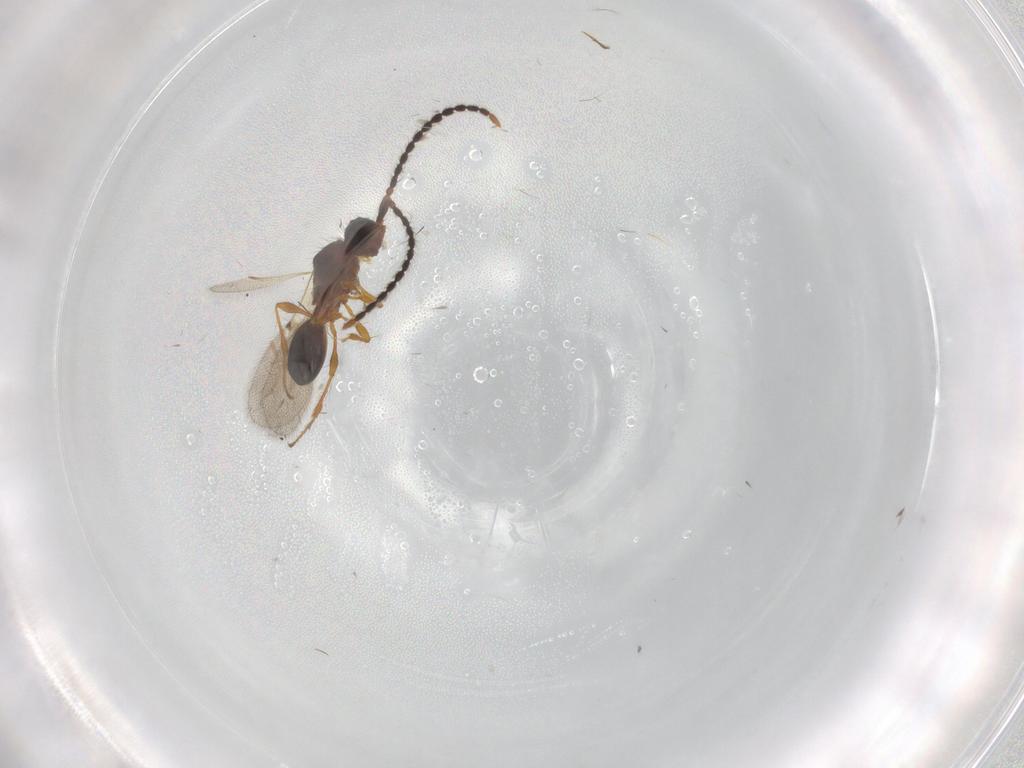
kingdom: Animalia
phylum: Arthropoda
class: Insecta
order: Hymenoptera
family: Diapriidae
